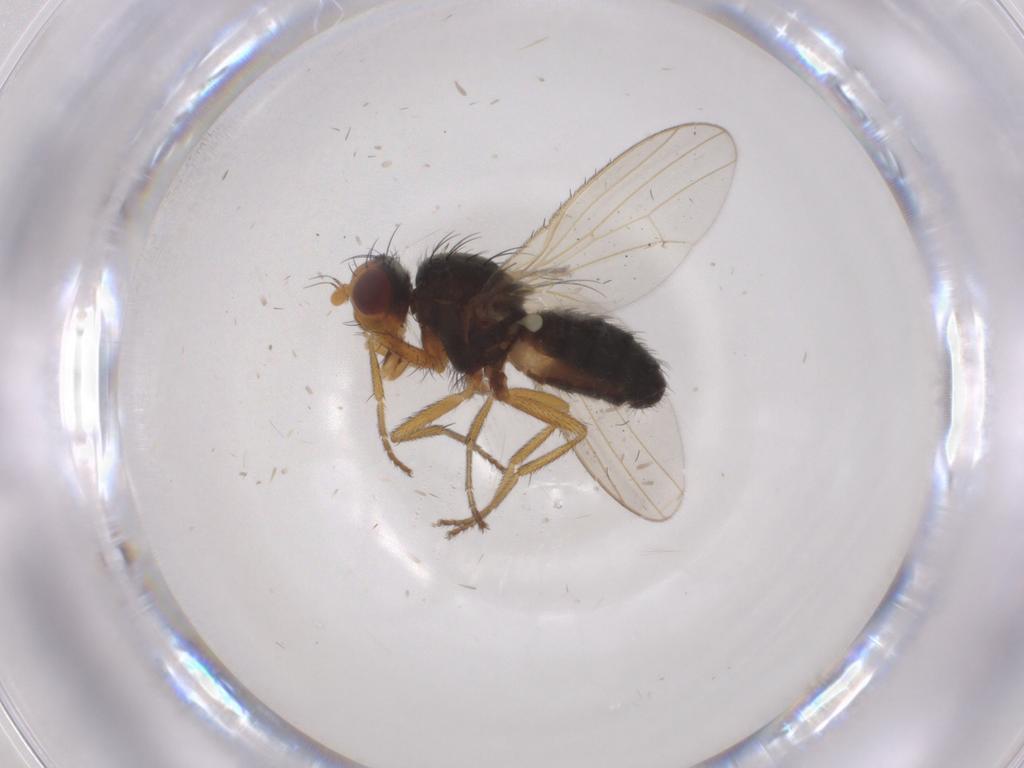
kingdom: Animalia
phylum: Arthropoda
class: Insecta
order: Diptera
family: Heleomyzidae
